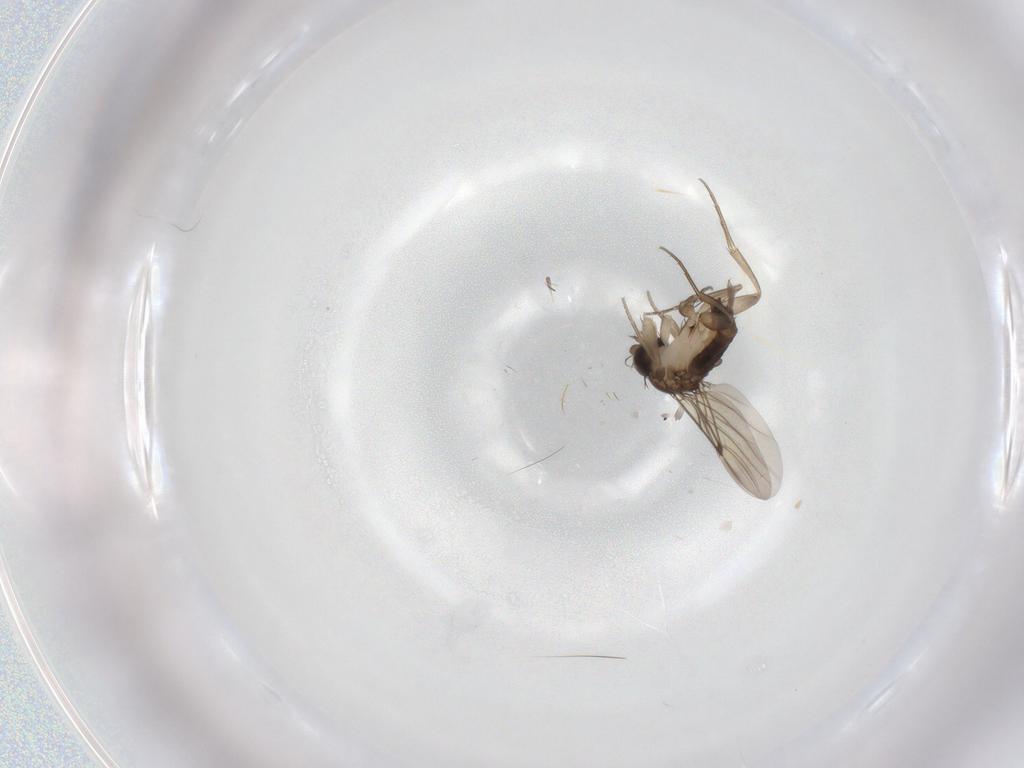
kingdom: Animalia
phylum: Arthropoda
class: Insecta
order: Diptera
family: Phoridae
